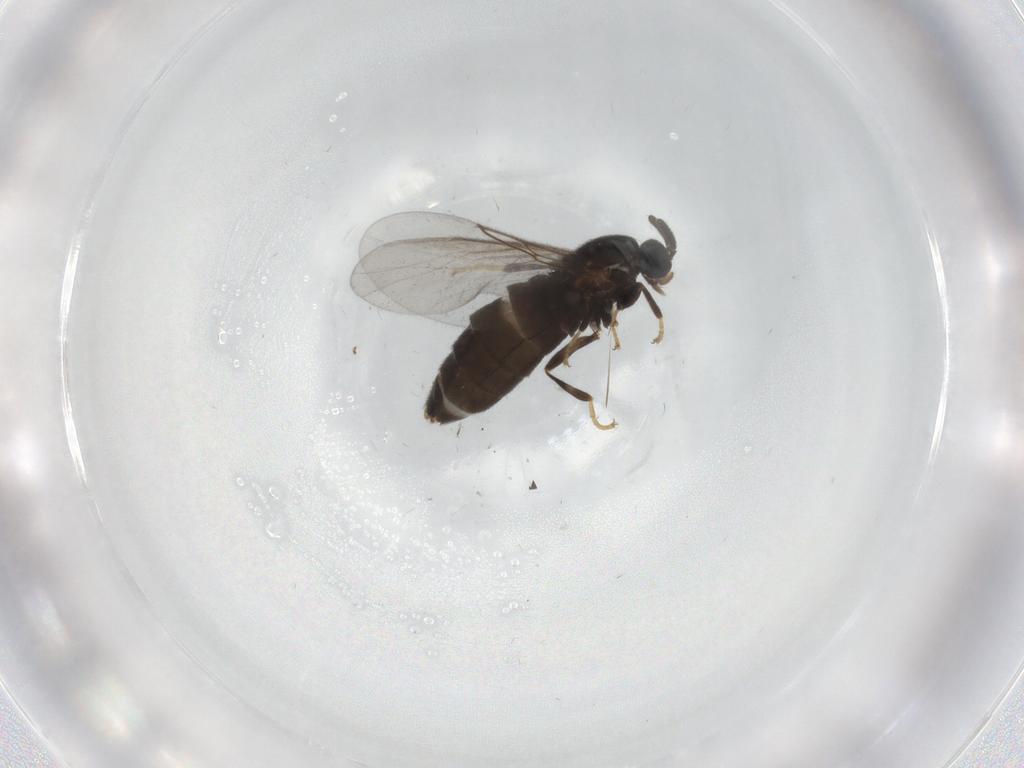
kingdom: Animalia
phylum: Arthropoda
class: Insecta
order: Diptera
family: Scatopsidae
